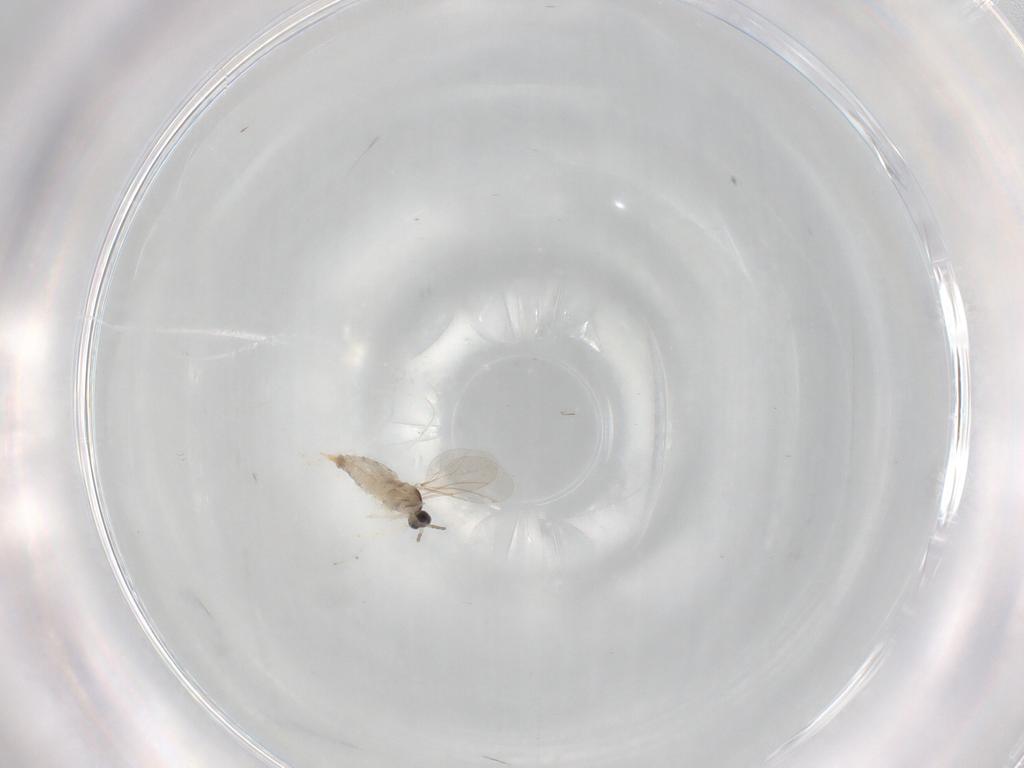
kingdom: Animalia
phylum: Arthropoda
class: Insecta
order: Diptera
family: Cecidomyiidae
